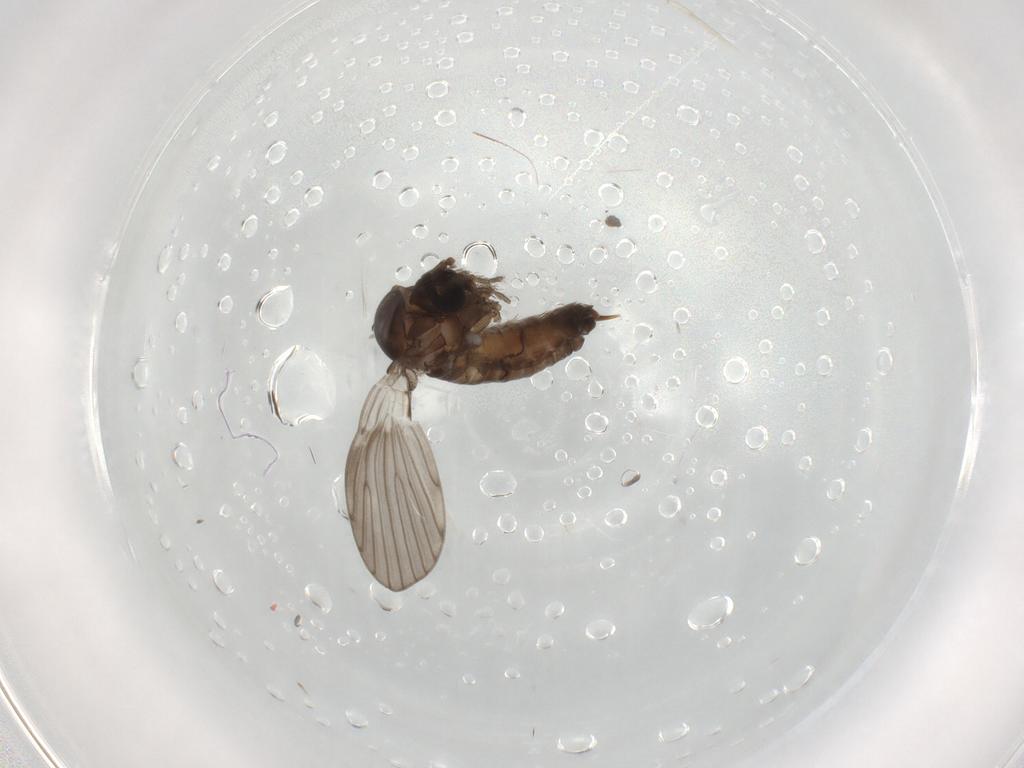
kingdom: Animalia
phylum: Arthropoda
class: Insecta
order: Diptera
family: Psychodidae
